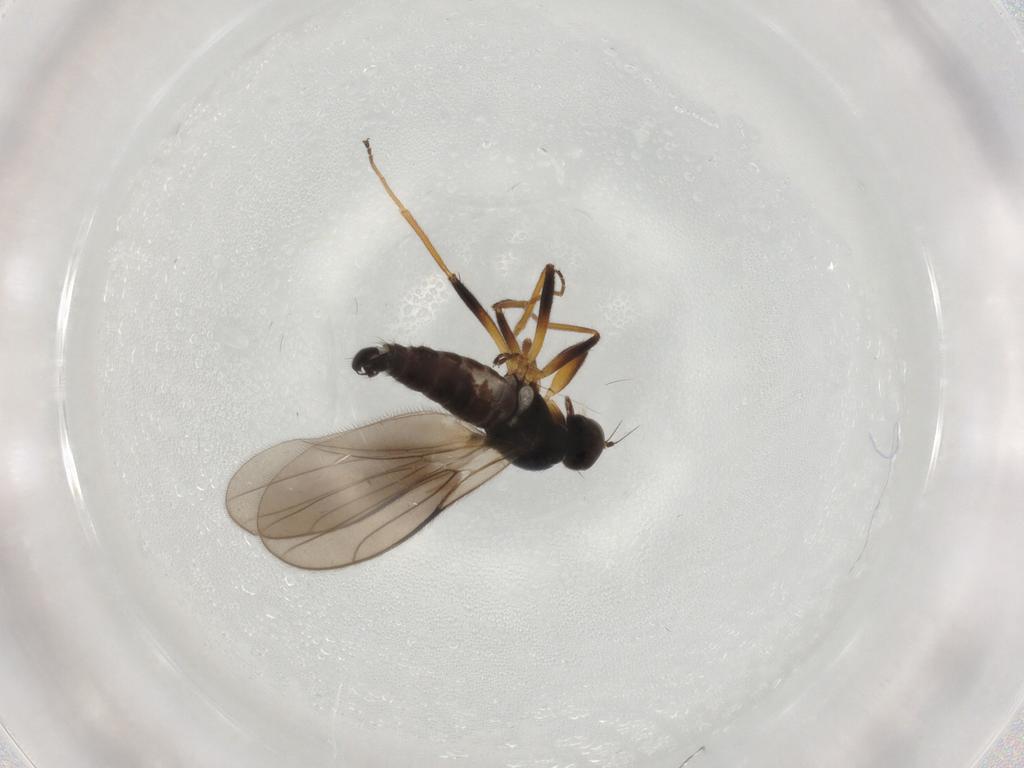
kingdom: Animalia
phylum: Arthropoda
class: Insecta
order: Diptera
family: Hybotidae
